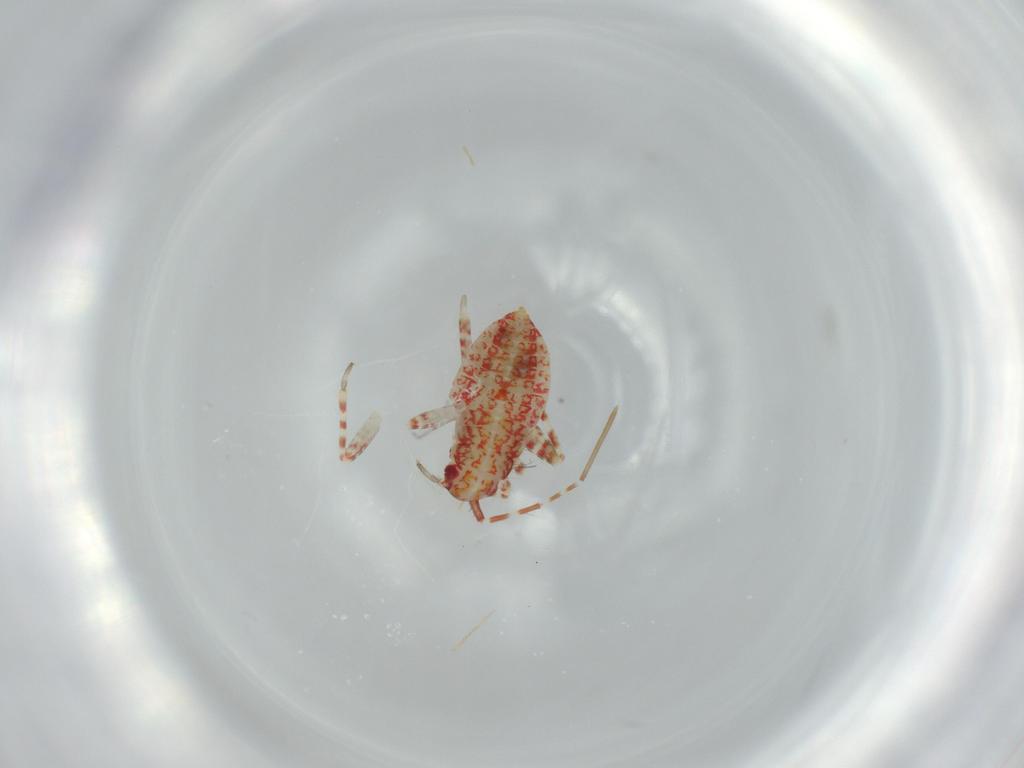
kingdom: Animalia
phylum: Arthropoda
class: Insecta
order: Hemiptera
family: Miridae
